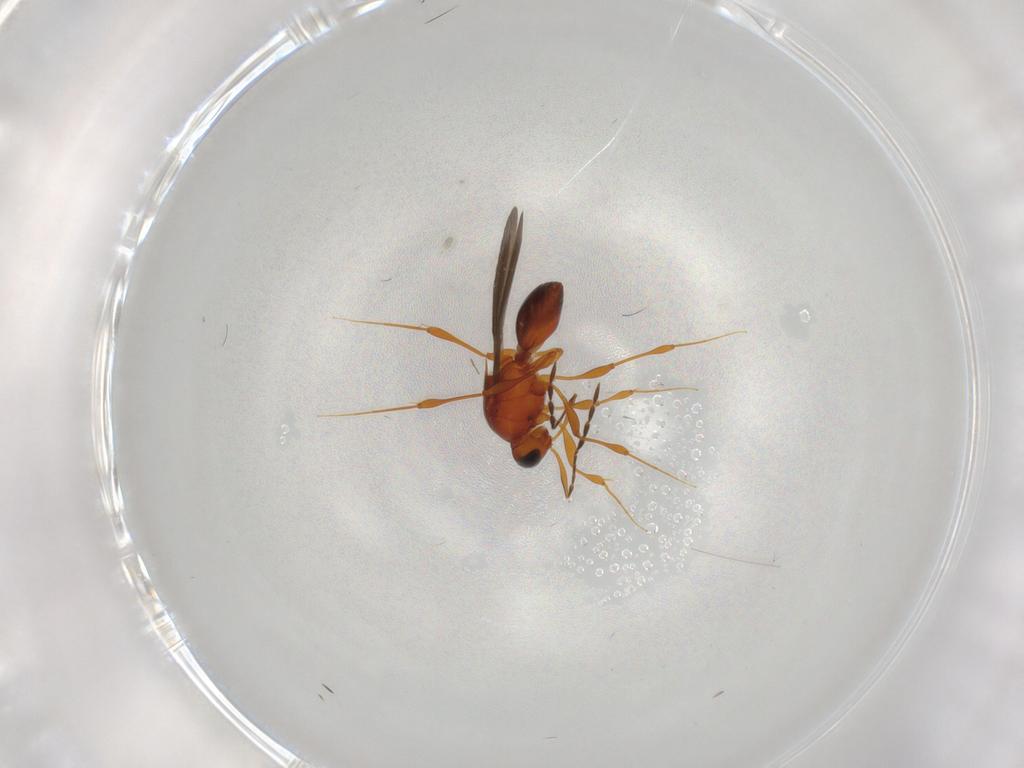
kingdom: Animalia
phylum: Arthropoda
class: Insecta
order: Hymenoptera
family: Platygastridae
